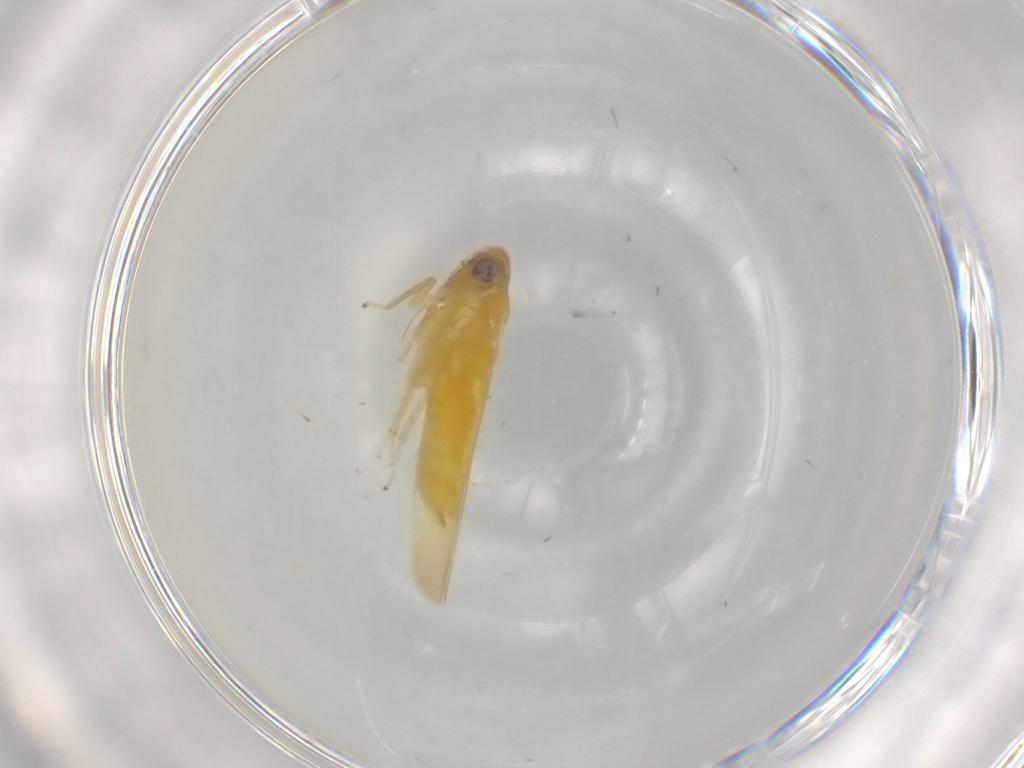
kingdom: Animalia
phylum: Arthropoda
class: Insecta
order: Hemiptera
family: Cicadellidae
